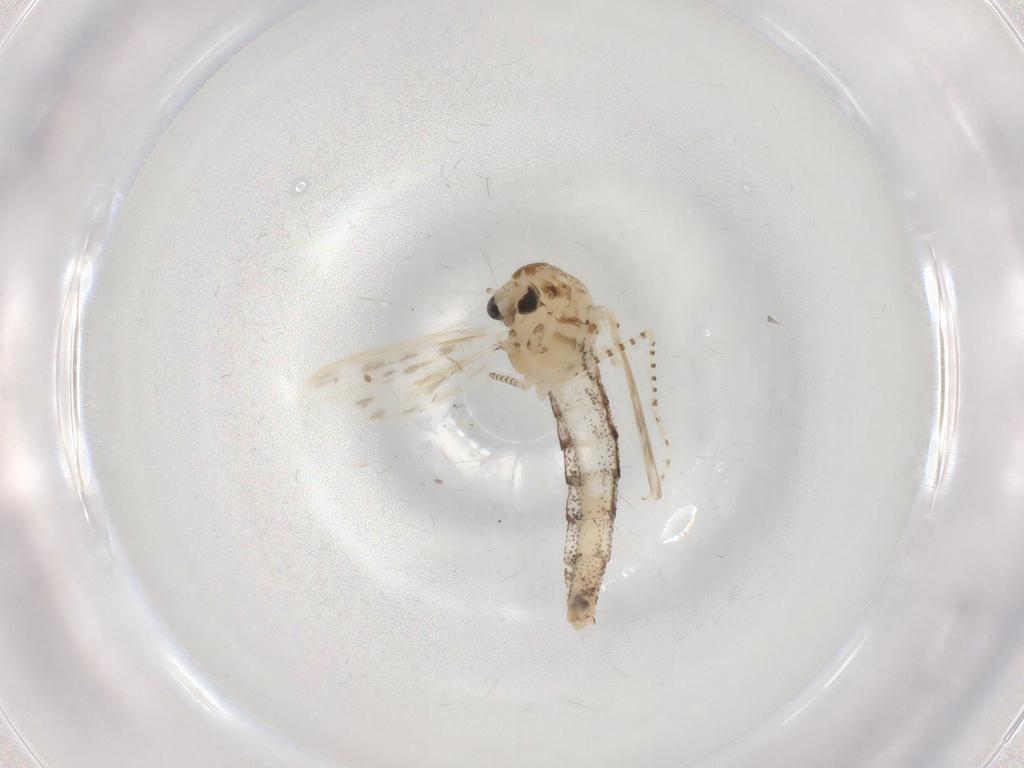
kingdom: Animalia
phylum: Arthropoda
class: Insecta
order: Diptera
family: Chaoboridae
